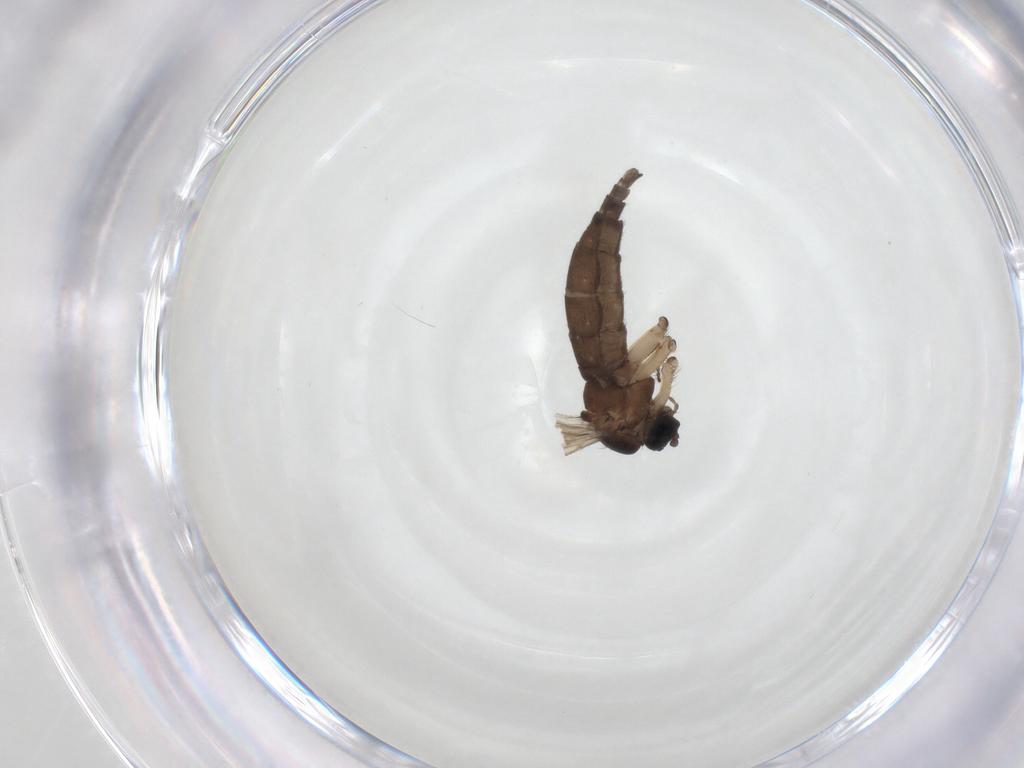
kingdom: Animalia
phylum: Arthropoda
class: Insecta
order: Diptera
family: Sciaridae
